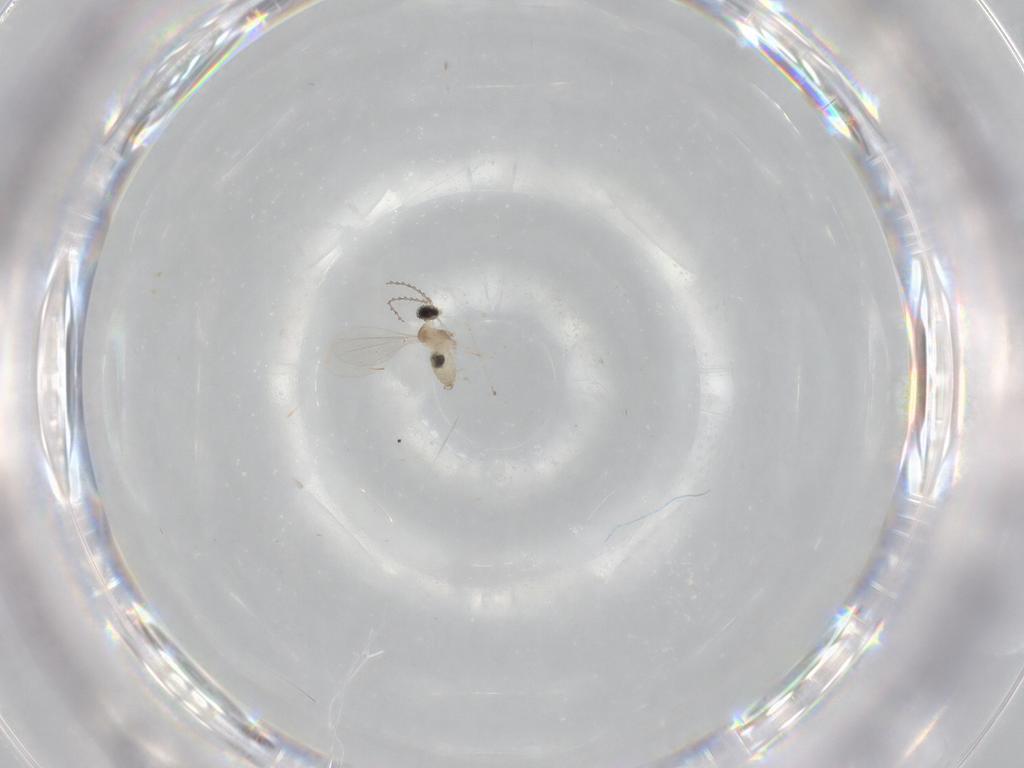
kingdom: Animalia
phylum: Arthropoda
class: Insecta
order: Diptera
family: Cecidomyiidae
